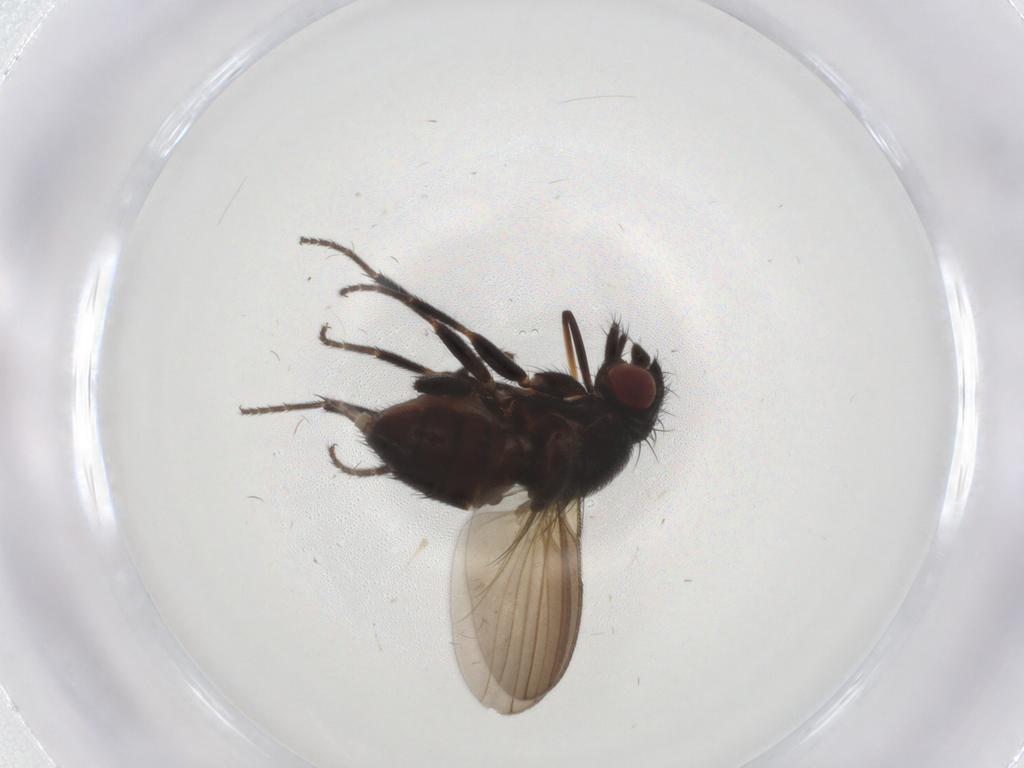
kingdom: Animalia
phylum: Arthropoda
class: Insecta
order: Diptera
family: Milichiidae
